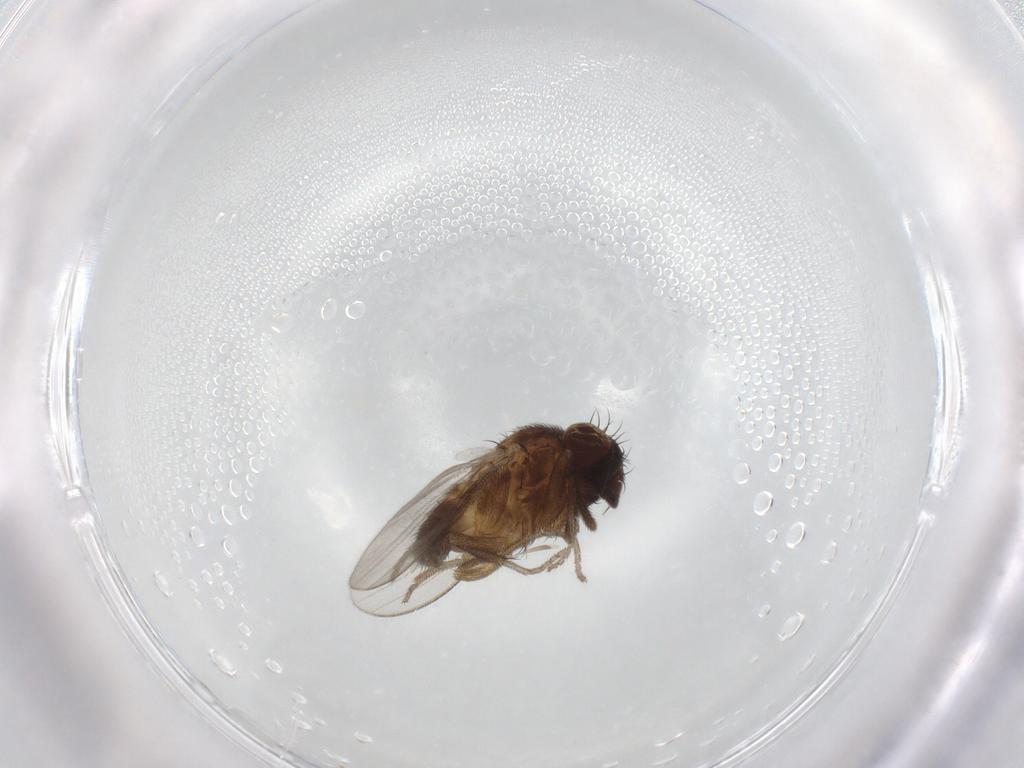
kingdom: Animalia
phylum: Arthropoda
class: Insecta
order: Diptera
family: Milichiidae
